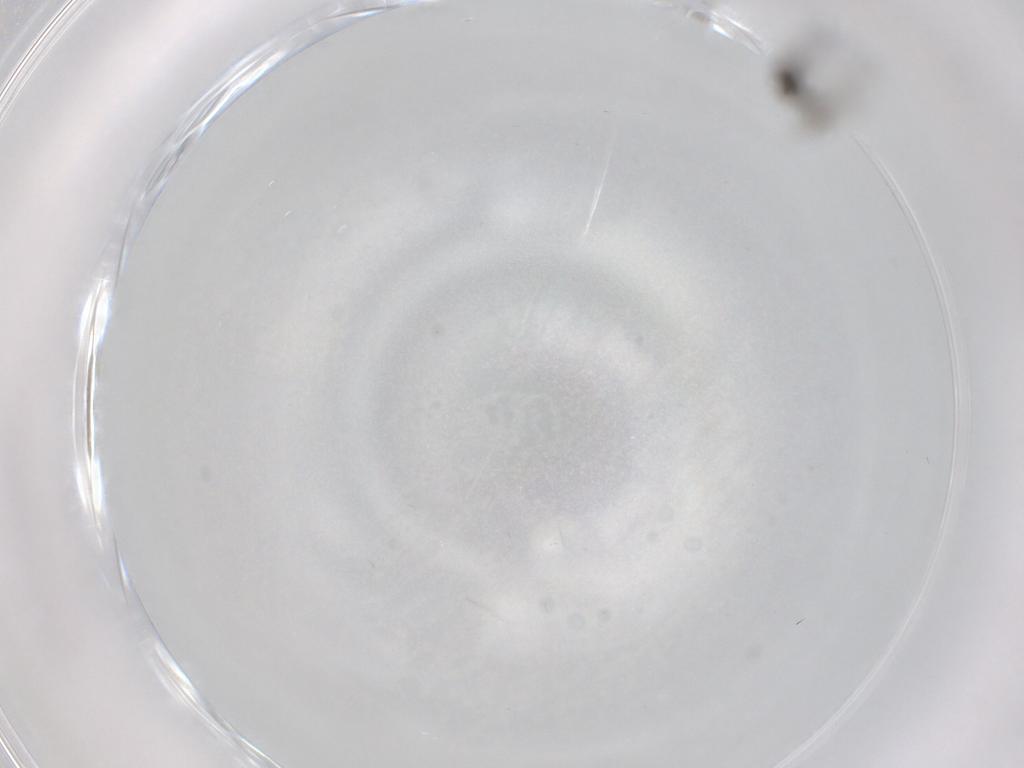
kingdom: Animalia
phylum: Arthropoda
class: Insecta
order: Diptera
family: Cecidomyiidae
